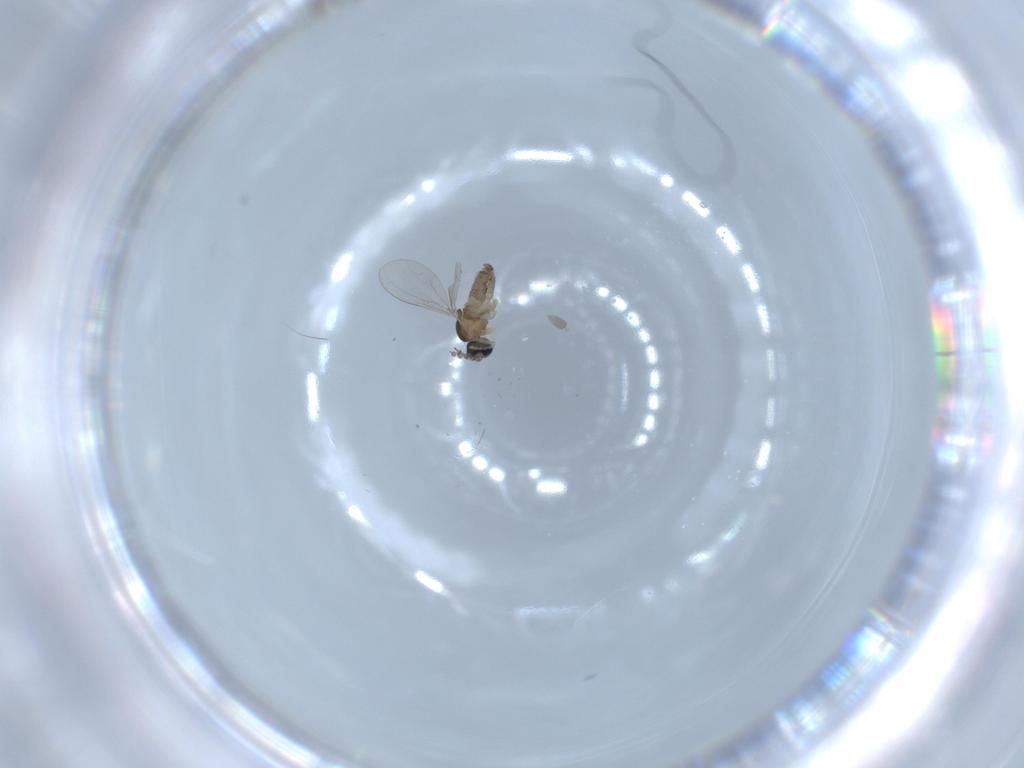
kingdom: Animalia
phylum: Arthropoda
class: Insecta
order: Diptera
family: Cecidomyiidae
